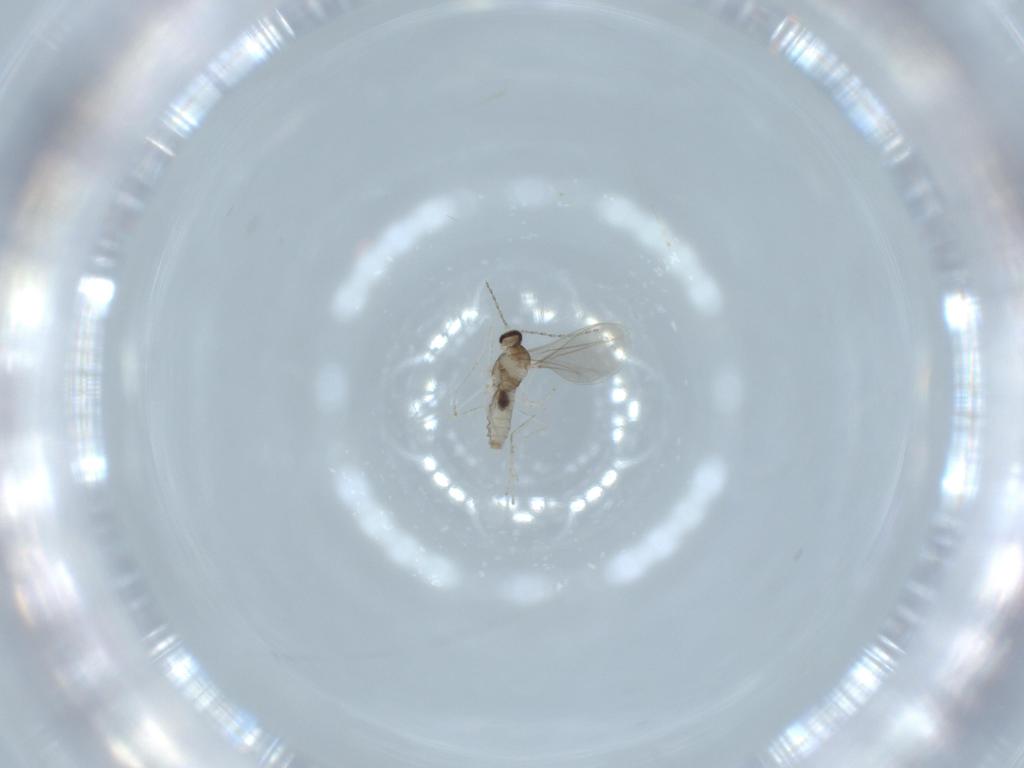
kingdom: Animalia
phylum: Arthropoda
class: Insecta
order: Diptera
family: Cecidomyiidae
